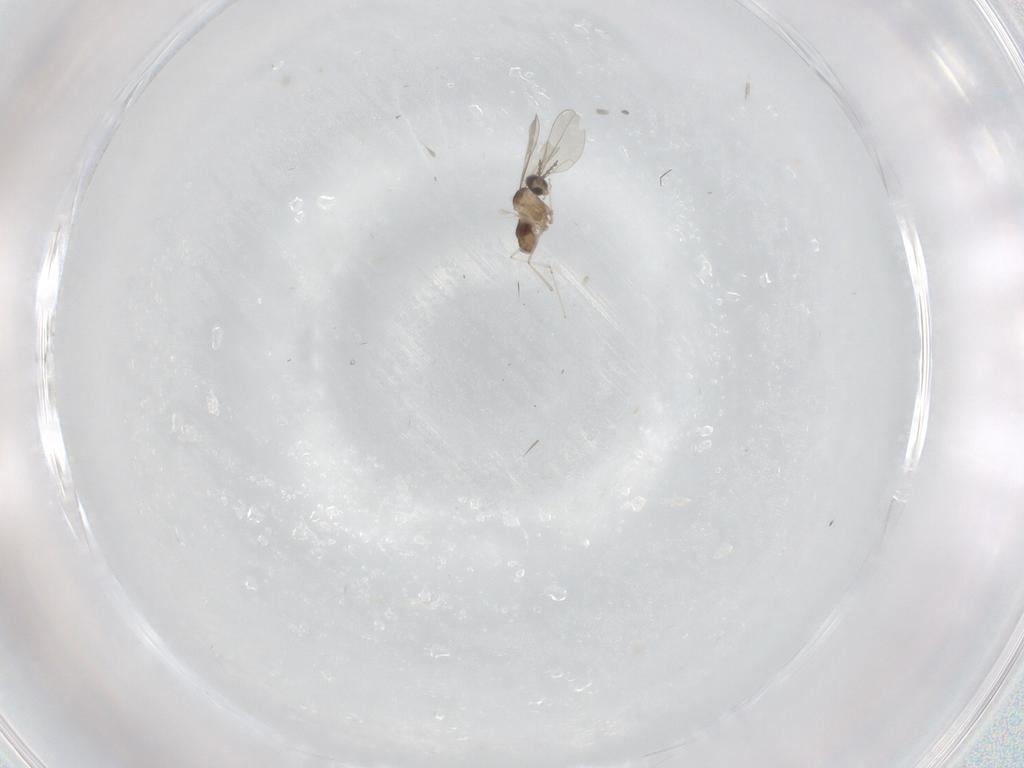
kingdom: Animalia
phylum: Arthropoda
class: Insecta
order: Diptera
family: Cecidomyiidae
